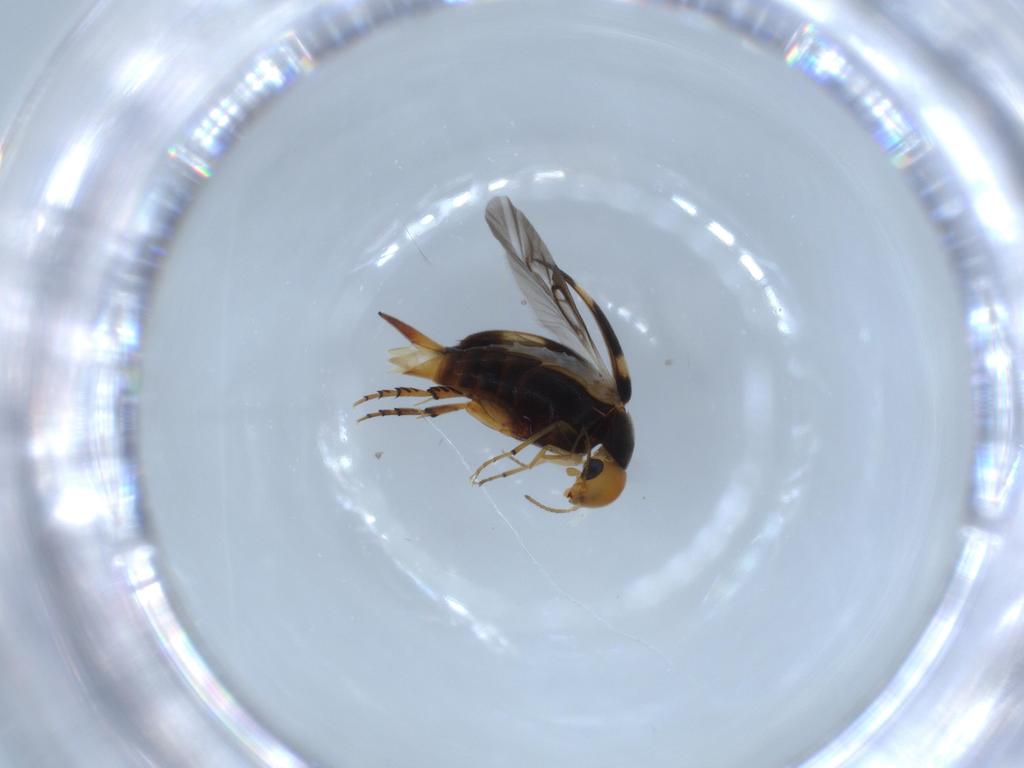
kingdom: Animalia
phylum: Arthropoda
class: Insecta
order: Coleoptera
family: Mordellidae
